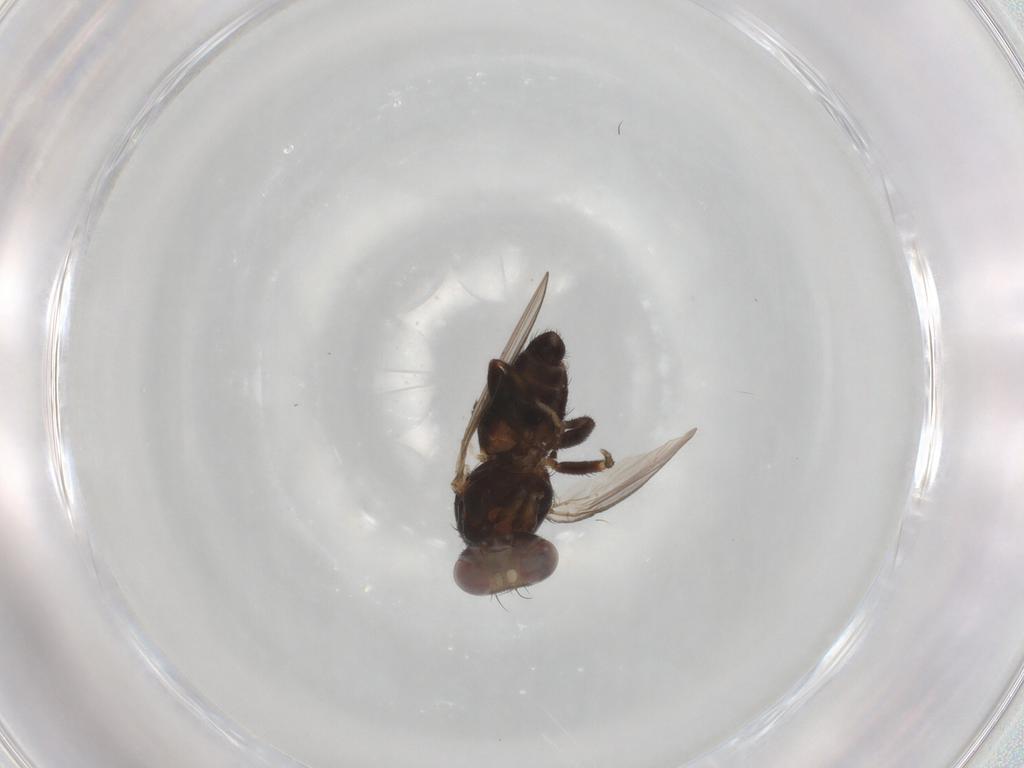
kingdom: Animalia
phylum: Arthropoda
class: Insecta
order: Diptera
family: Heleomyzidae
